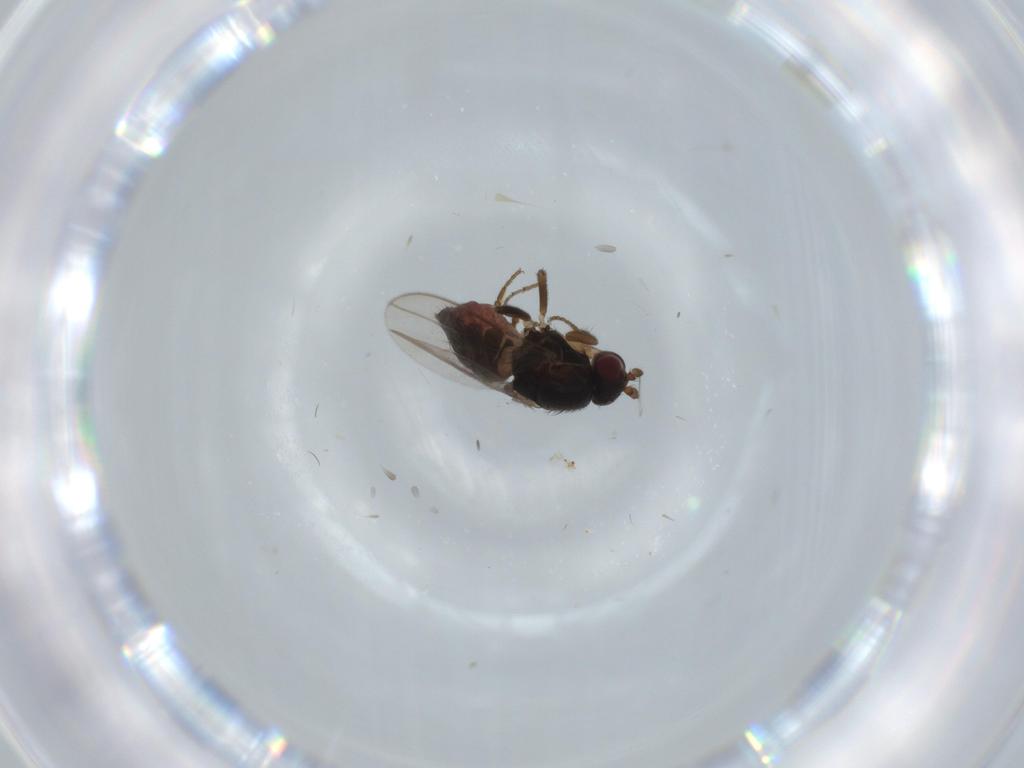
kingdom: Animalia
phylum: Arthropoda
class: Insecta
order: Diptera
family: Sphaeroceridae
